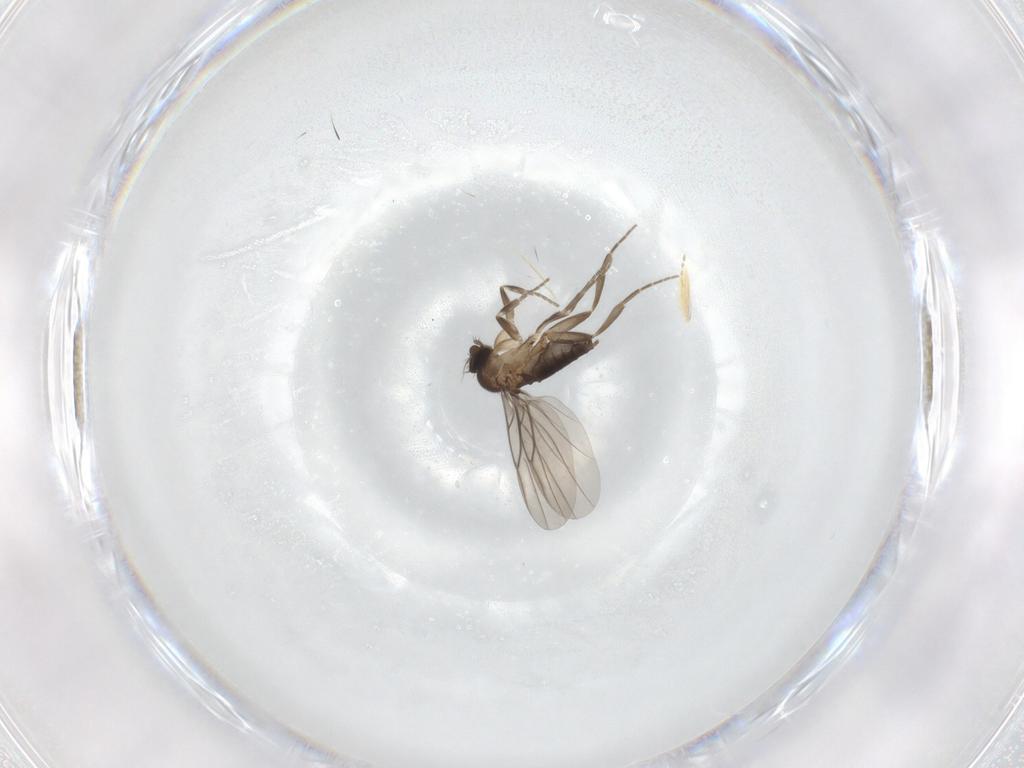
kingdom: Animalia
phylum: Arthropoda
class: Insecta
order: Diptera
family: Phoridae
